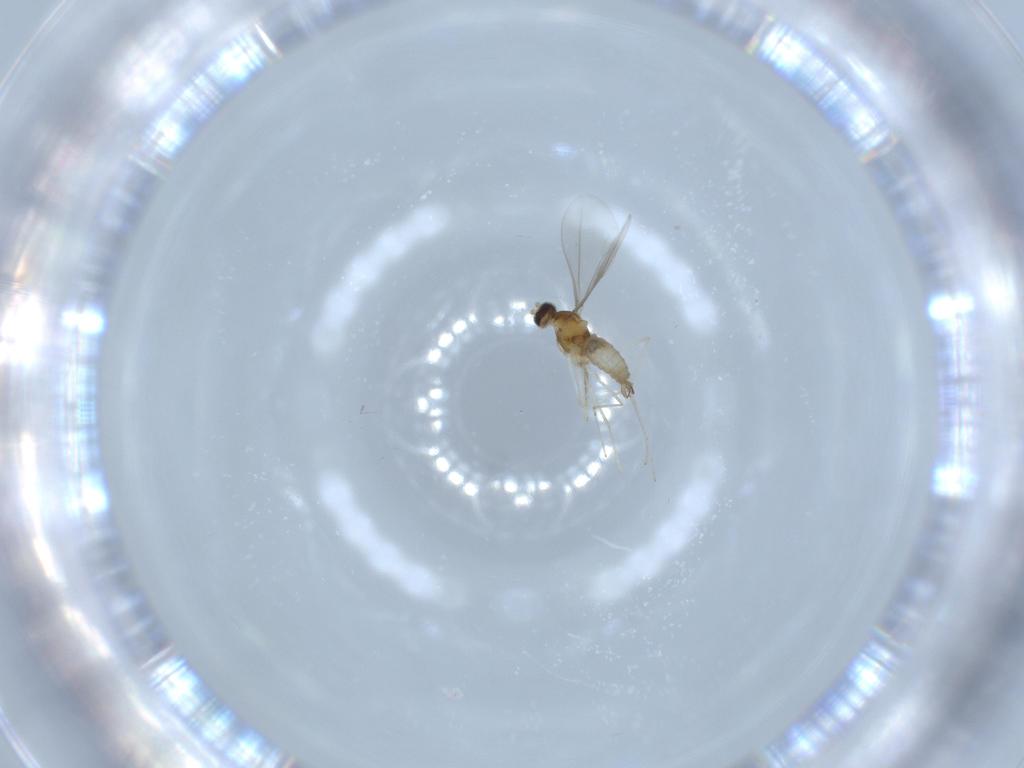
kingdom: Animalia
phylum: Arthropoda
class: Insecta
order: Diptera
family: Cecidomyiidae
